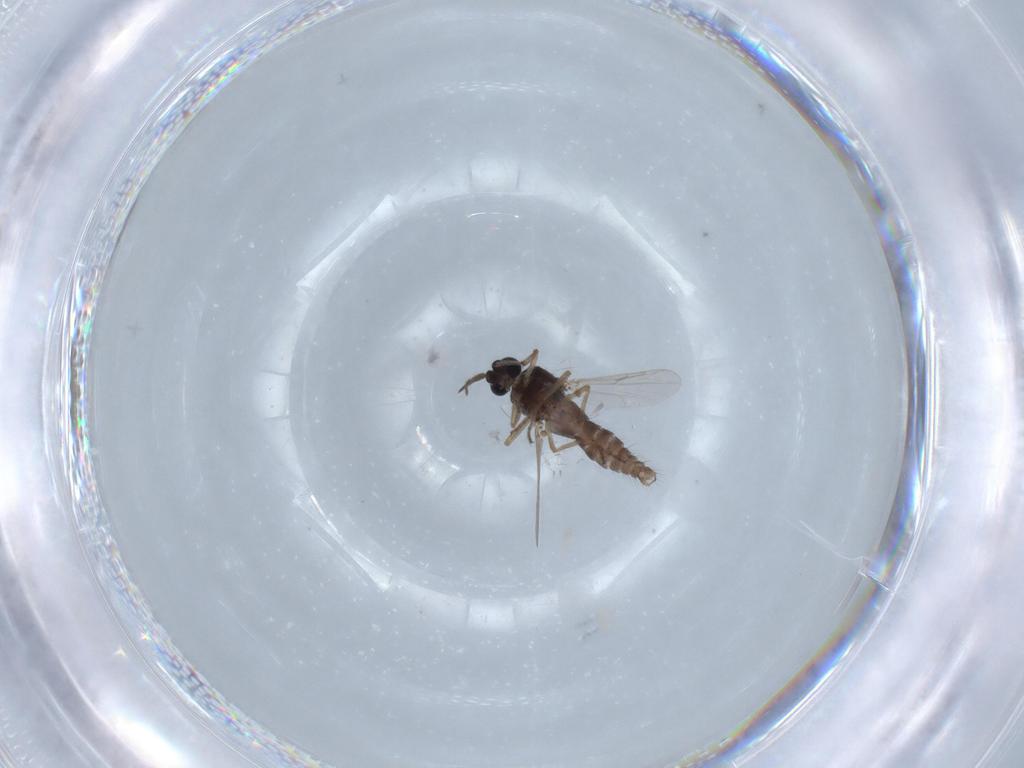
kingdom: Animalia
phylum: Arthropoda
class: Insecta
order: Diptera
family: Ceratopogonidae
